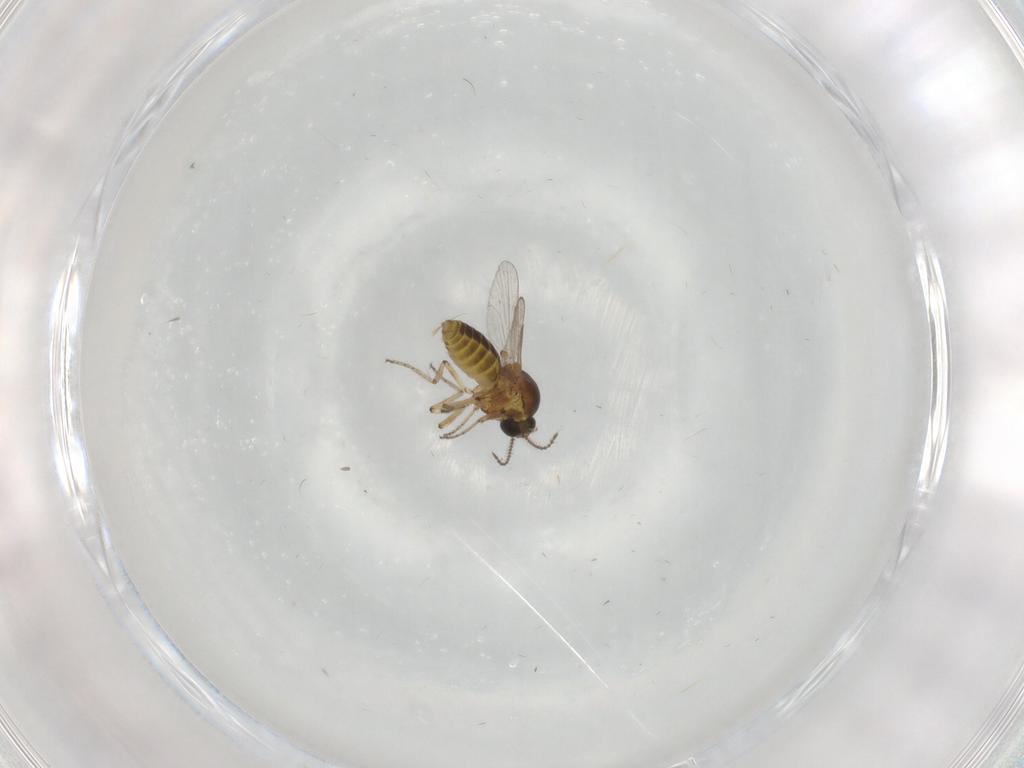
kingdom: Animalia
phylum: Arthropoda
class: Insecta
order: Diptera
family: Ceratopogonidae
